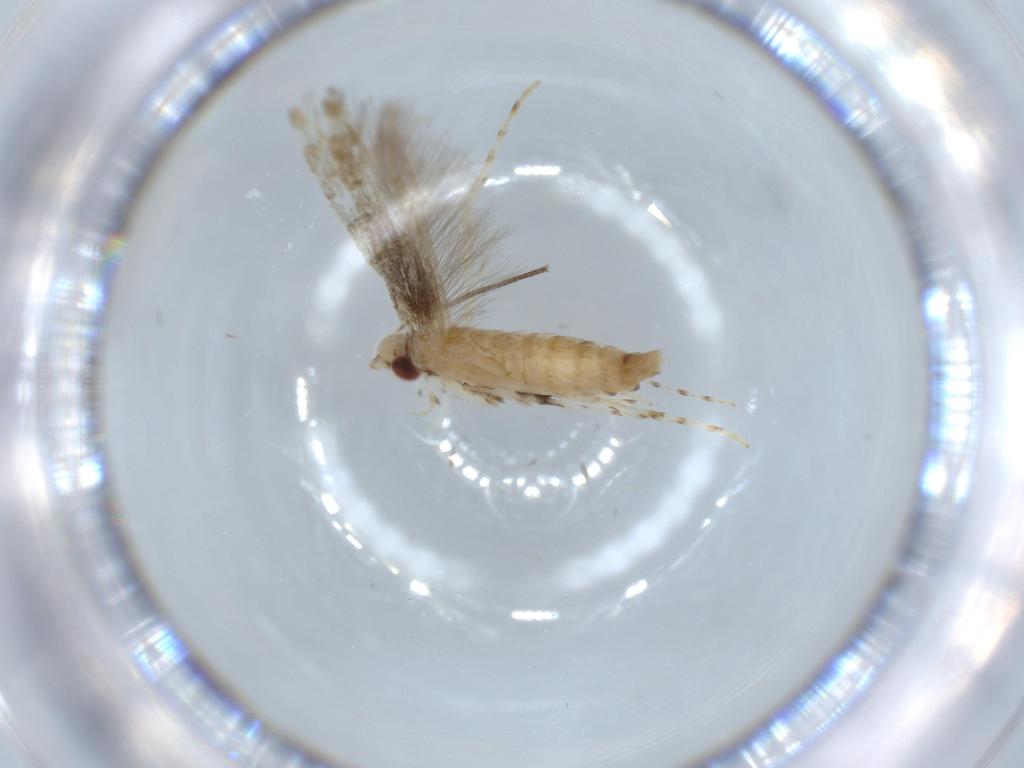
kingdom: Animalia
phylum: Arthropoda
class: Insecta
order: Lepidoptera
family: Gracillariidae
